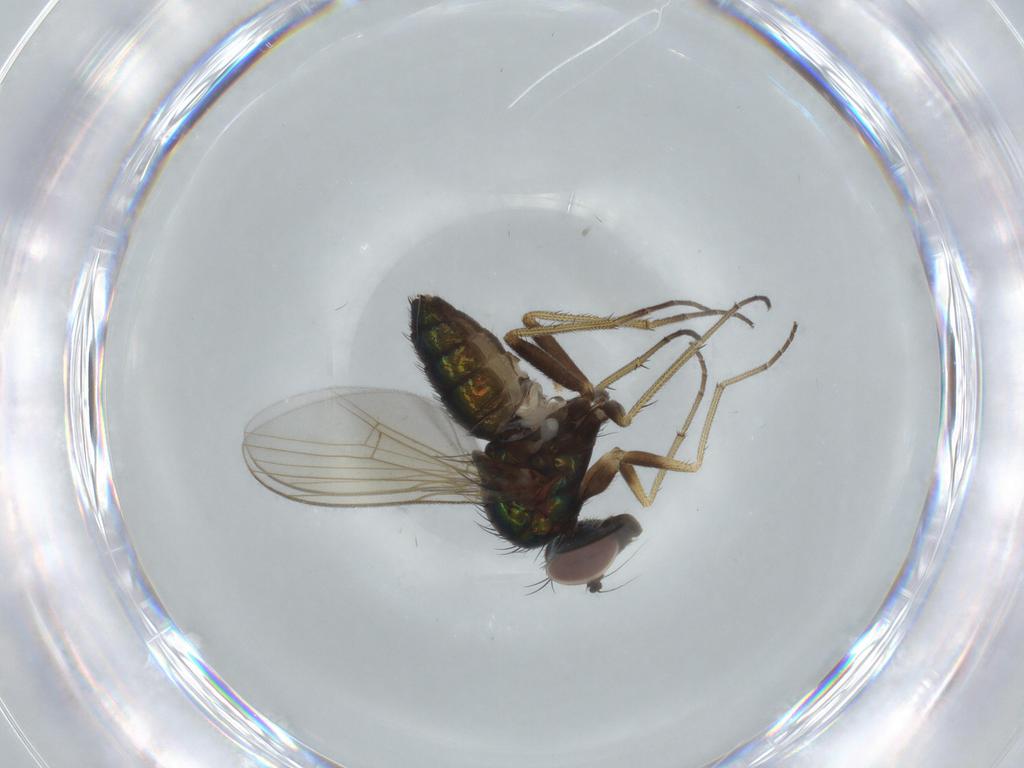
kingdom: Animalia
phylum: Arthropoda
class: Insecta
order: Diptera
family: Dolichopodidae
